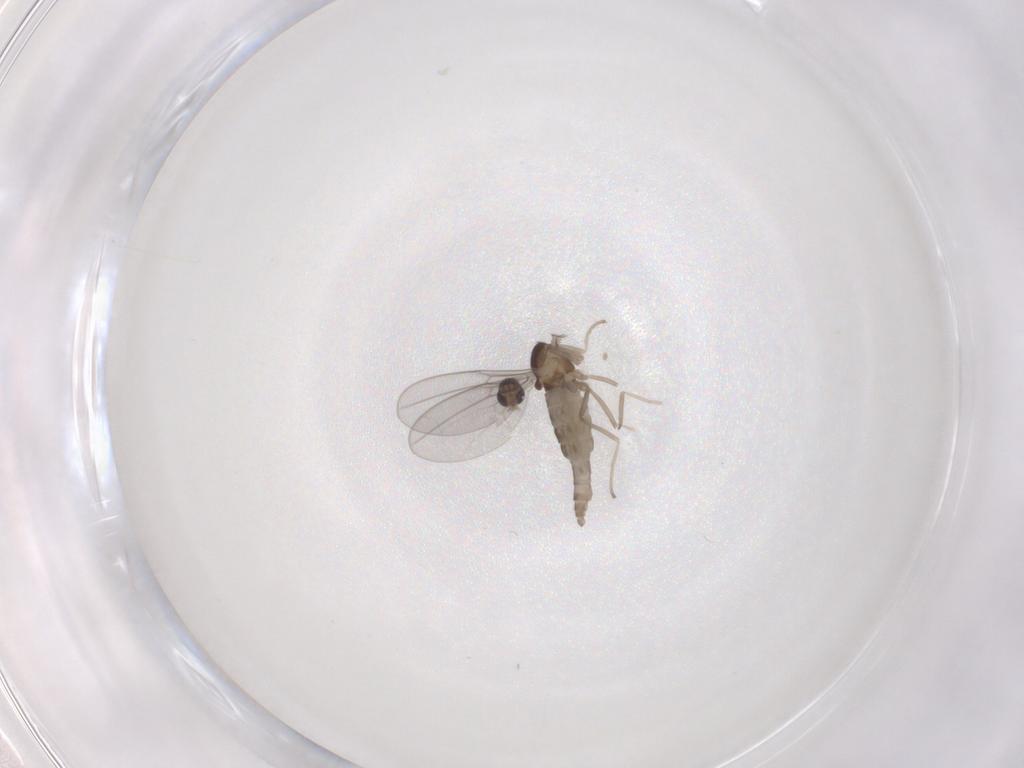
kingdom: Animalia
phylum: Arthropoda
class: Insecta
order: Diptera
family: Cecidomyiidae
